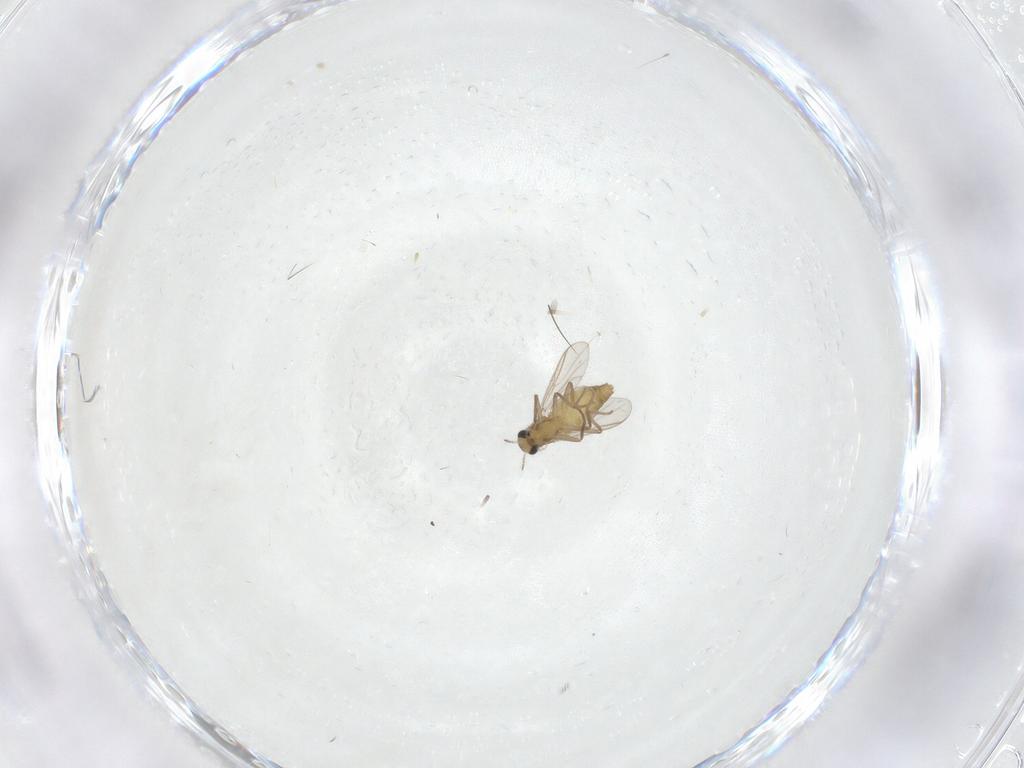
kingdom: Animalia
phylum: Arthropoda
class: Insecta
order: Diptera
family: Chironomidae
